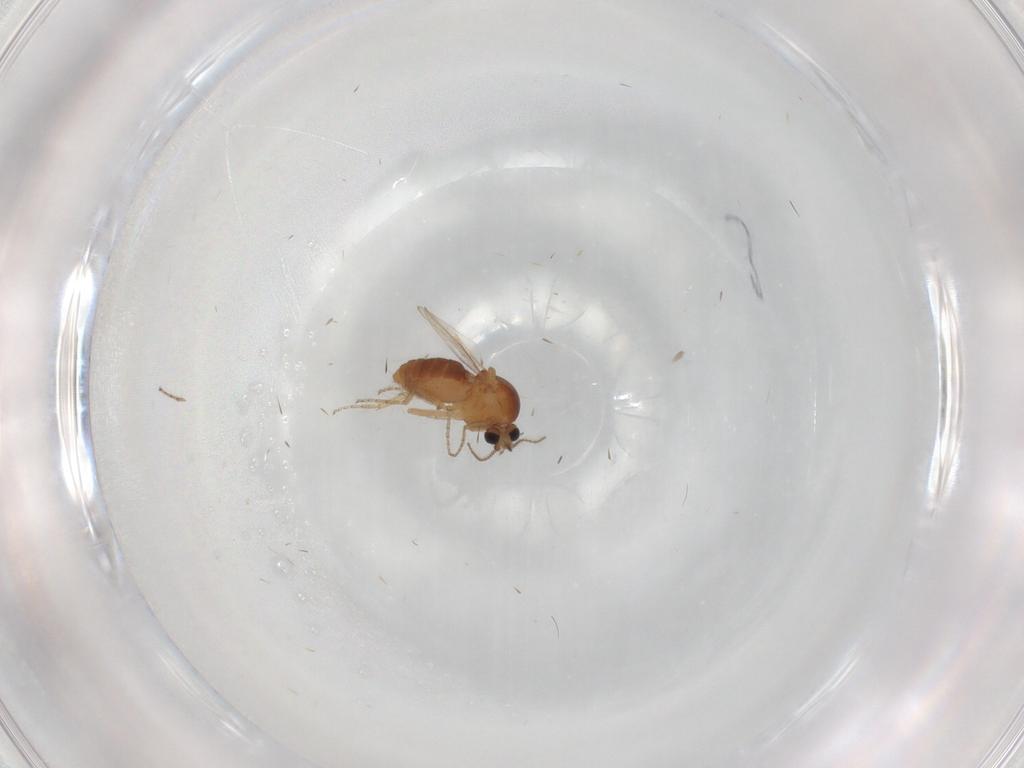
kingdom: Animalia
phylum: Arthropoda
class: Insecta
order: Diptera
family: Ceratopogonidae
